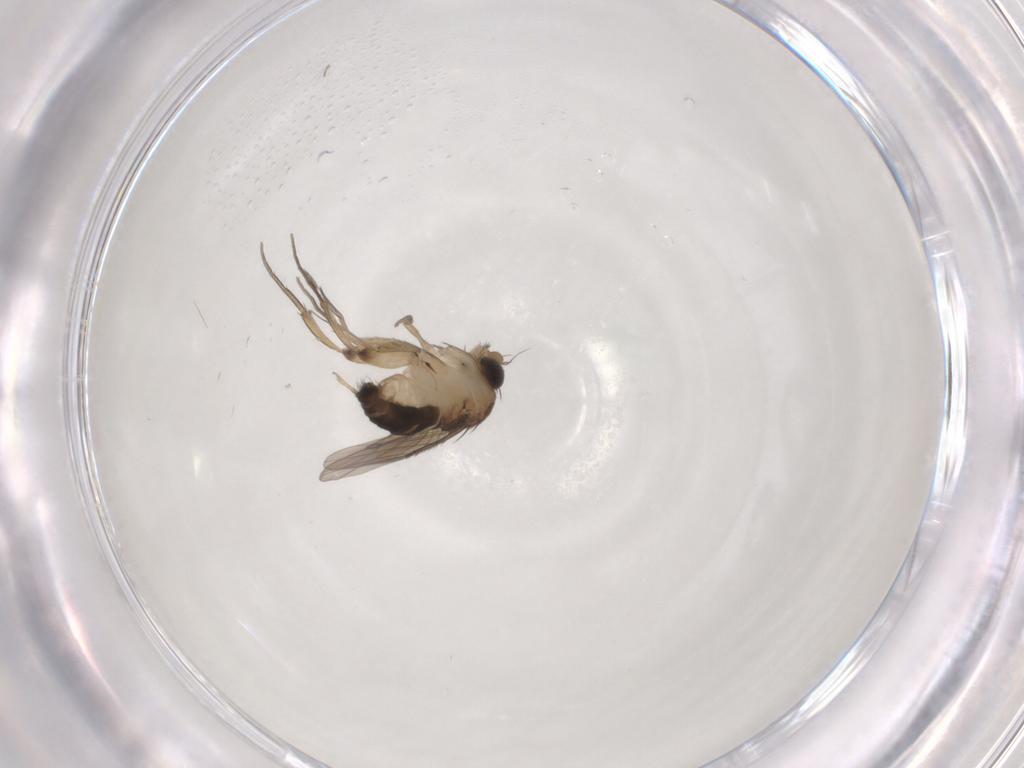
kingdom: Animalia
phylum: Arthropoda
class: Insecta
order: Diptera
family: Phoridae
